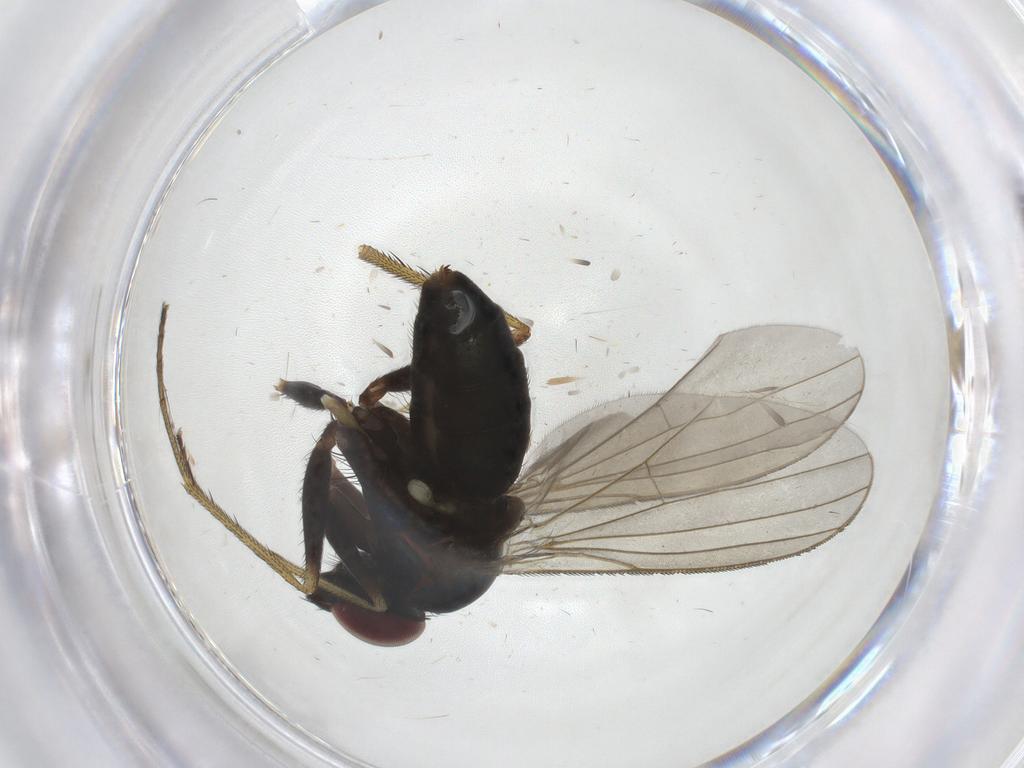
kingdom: Animalia
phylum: Arthropoda
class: Insecta
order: Diptera
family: Dolichopodidae
